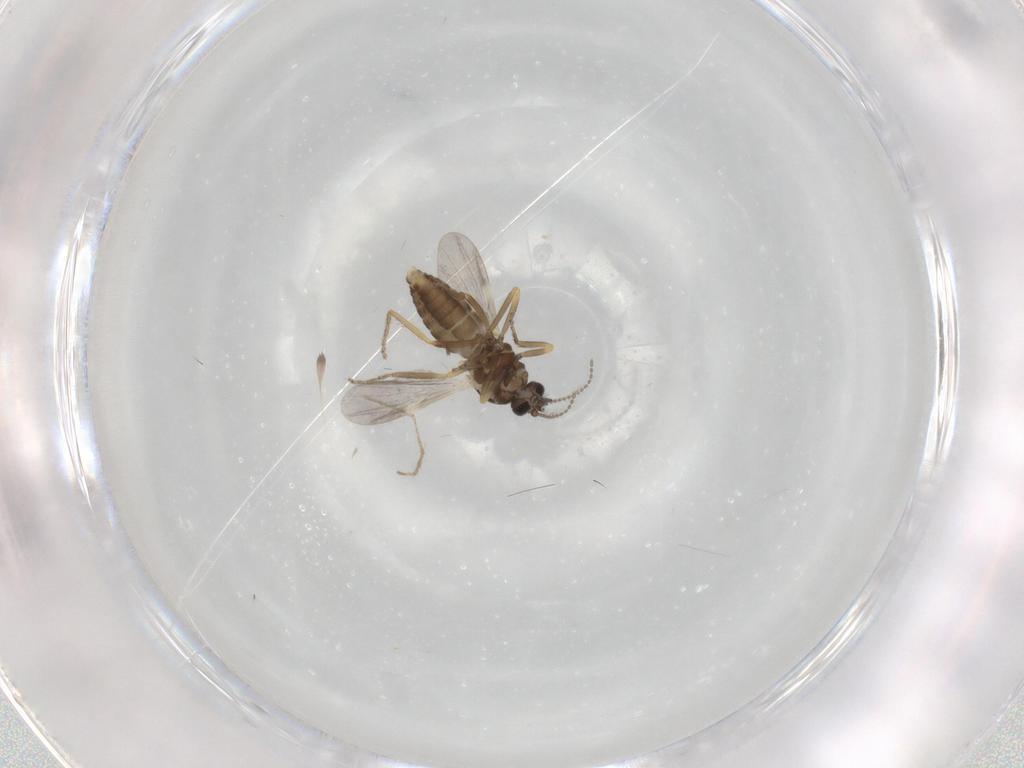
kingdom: Animalia
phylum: Arthropoda
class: Insecta
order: Diptera
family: Ceratopogonidae
